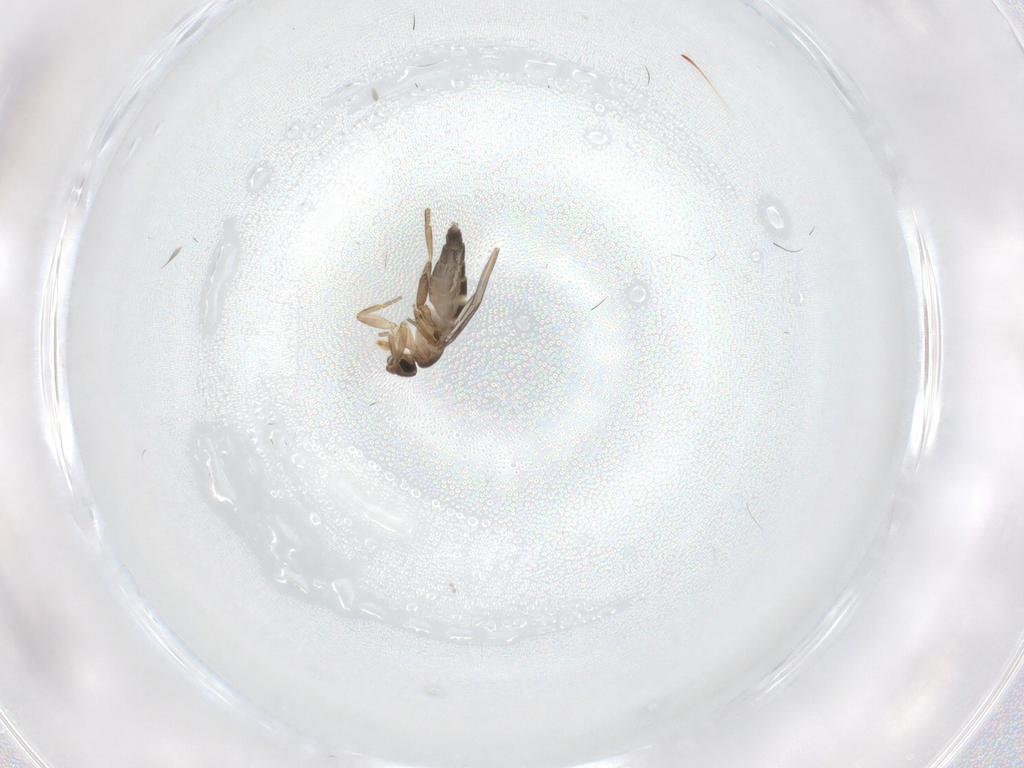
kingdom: Animalia
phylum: Arthropoda
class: Insecta
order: Diptera
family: Phoridae
